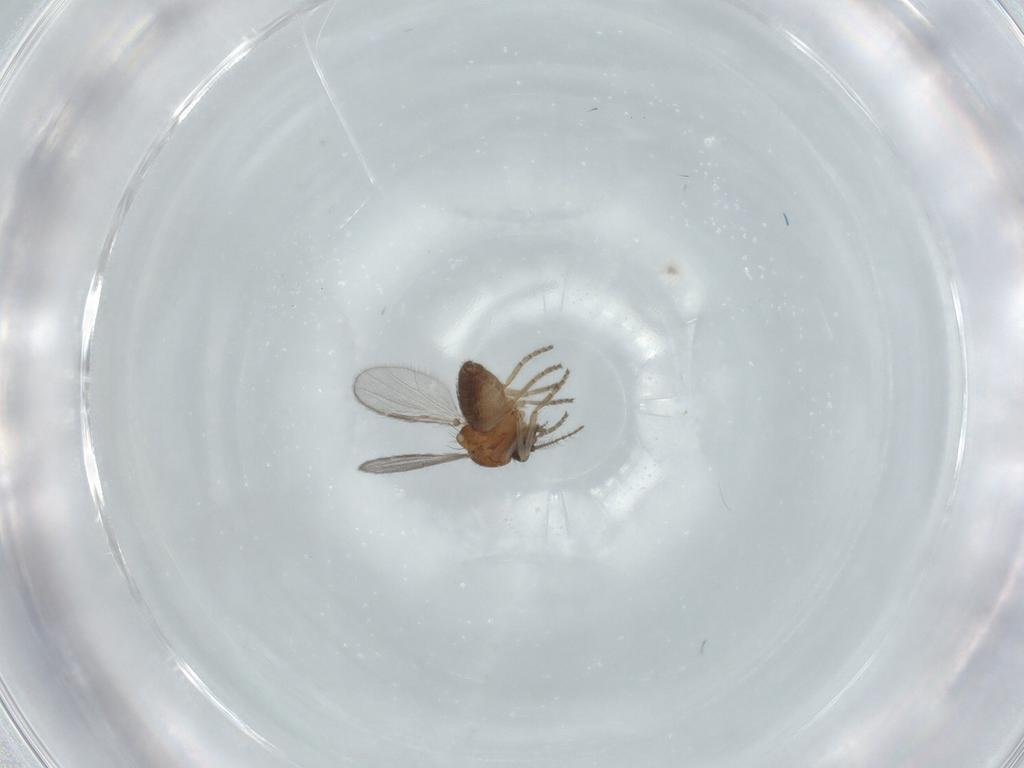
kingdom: Animalia
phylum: Arthropoda
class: Insecta
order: Diptera
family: Ceratopogonidae
